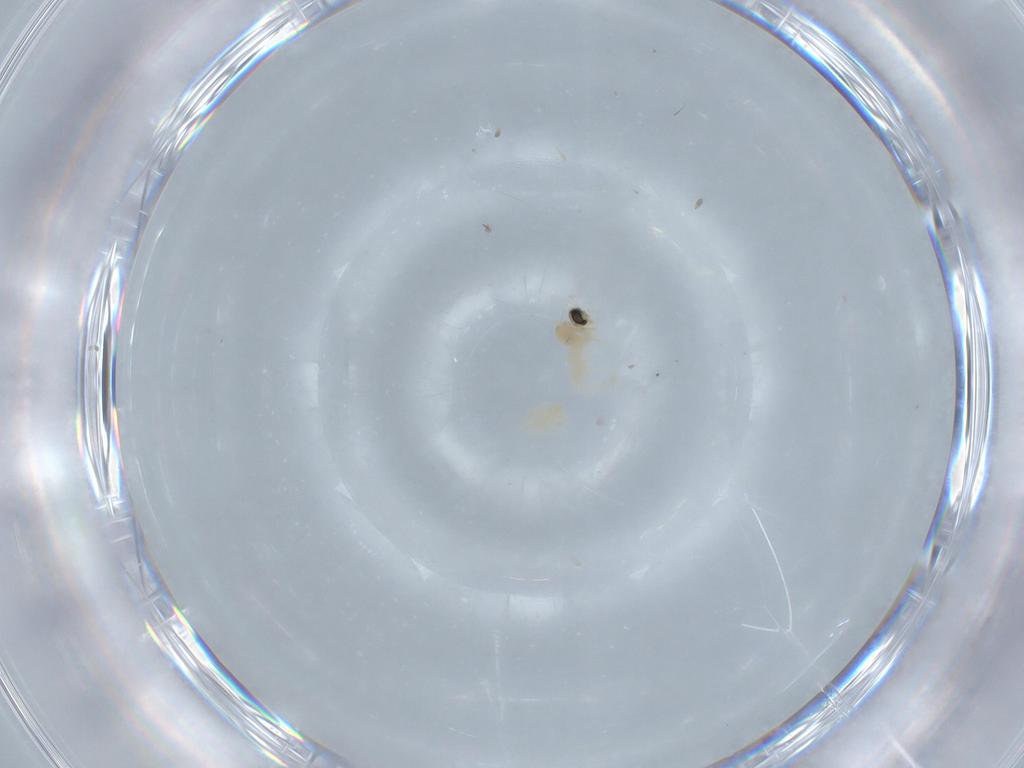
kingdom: Animalia
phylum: Arthropoda
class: Insecta
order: Diptera
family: Cecidomyiidae
